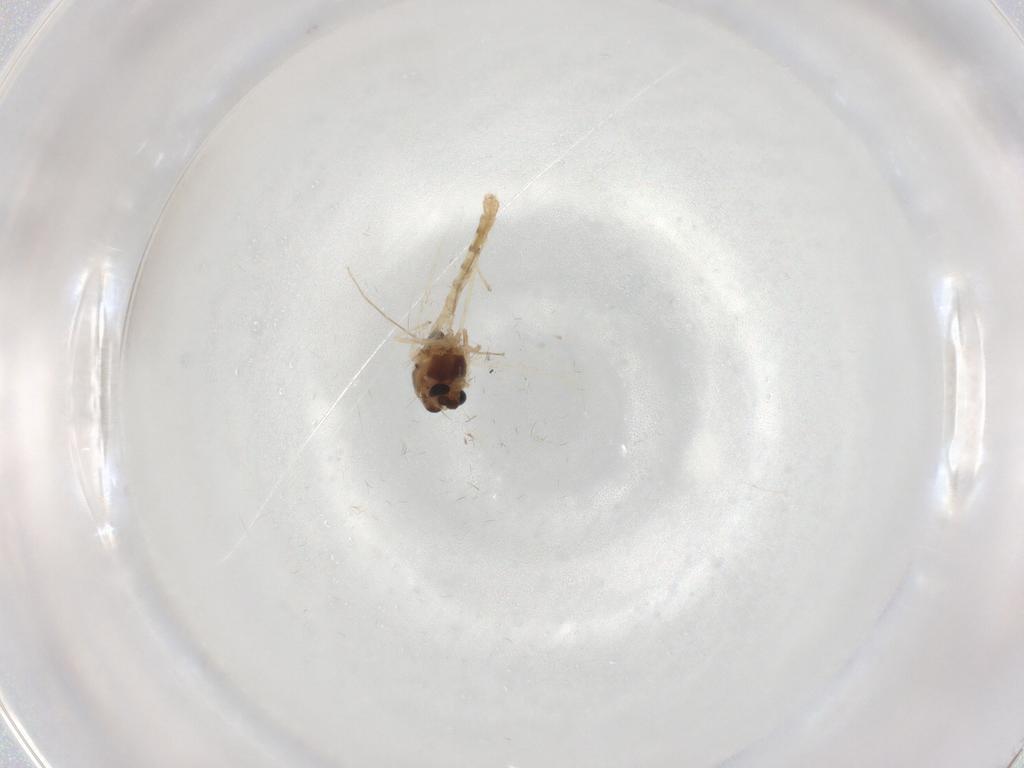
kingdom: Animalia
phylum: Arthropoda
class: Insecta
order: Diptera
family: Chironomidae
